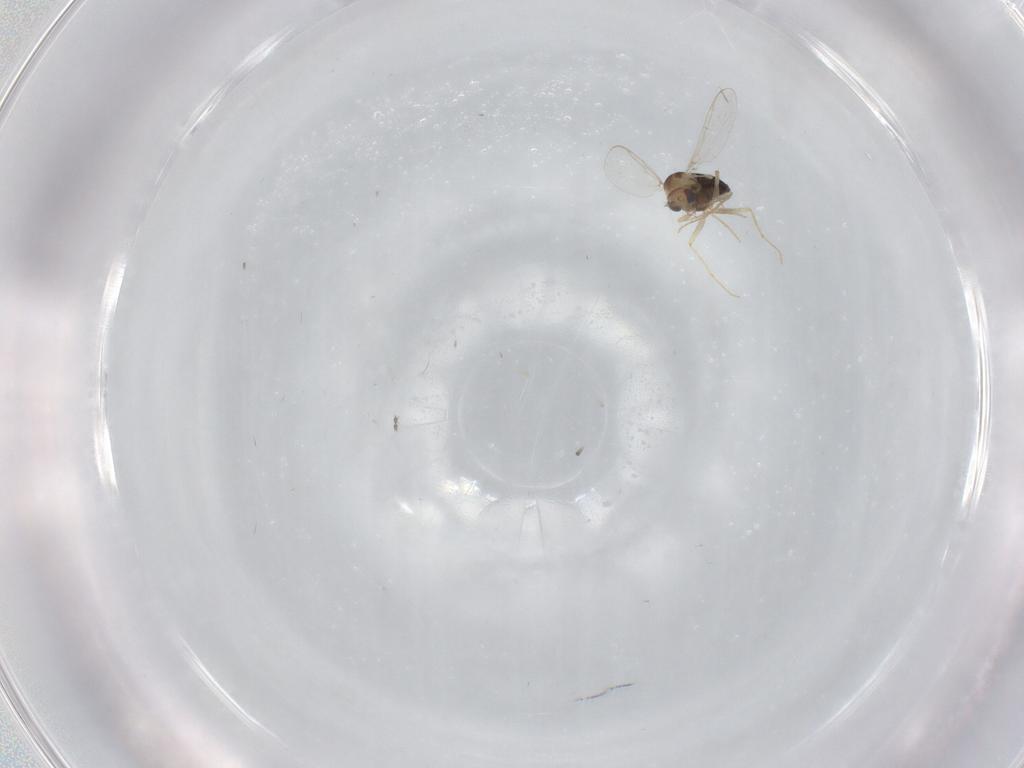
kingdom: Animalia
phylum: Arthropoda
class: Insecta
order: Diptera
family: Chironomidae
